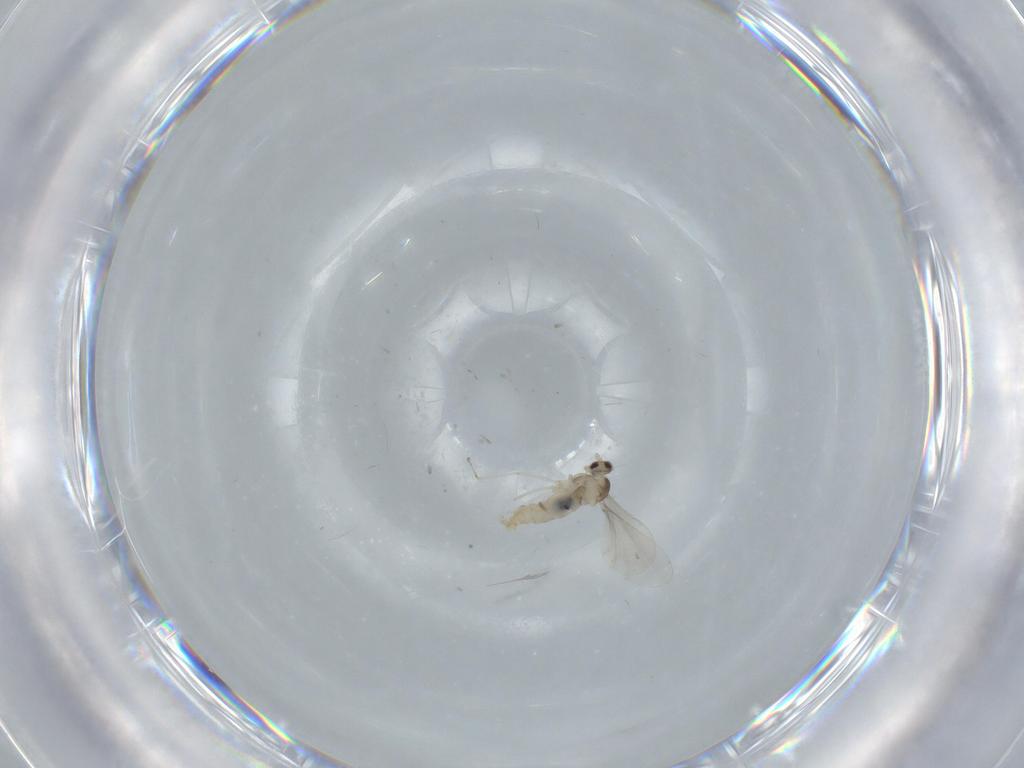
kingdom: Animalia
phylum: Arthropoda
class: Insecta
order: Diptera
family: Cecidomyiidae
